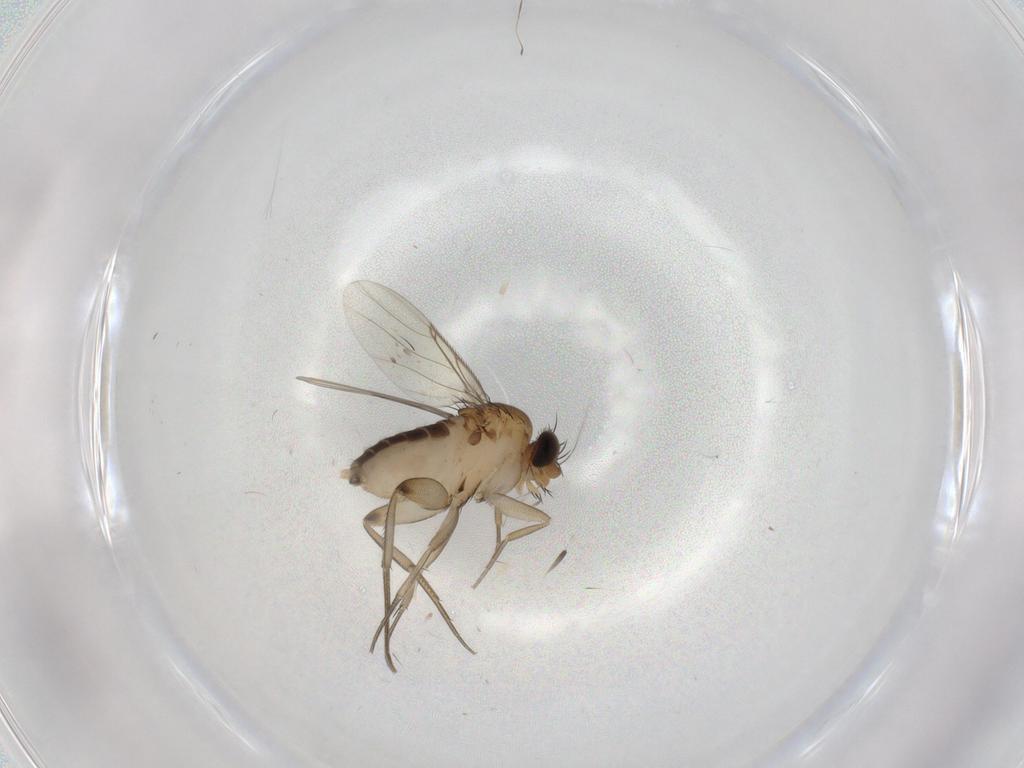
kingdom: Animalia
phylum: Arthropoda
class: Insecta
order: Diptera
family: Phoridae
